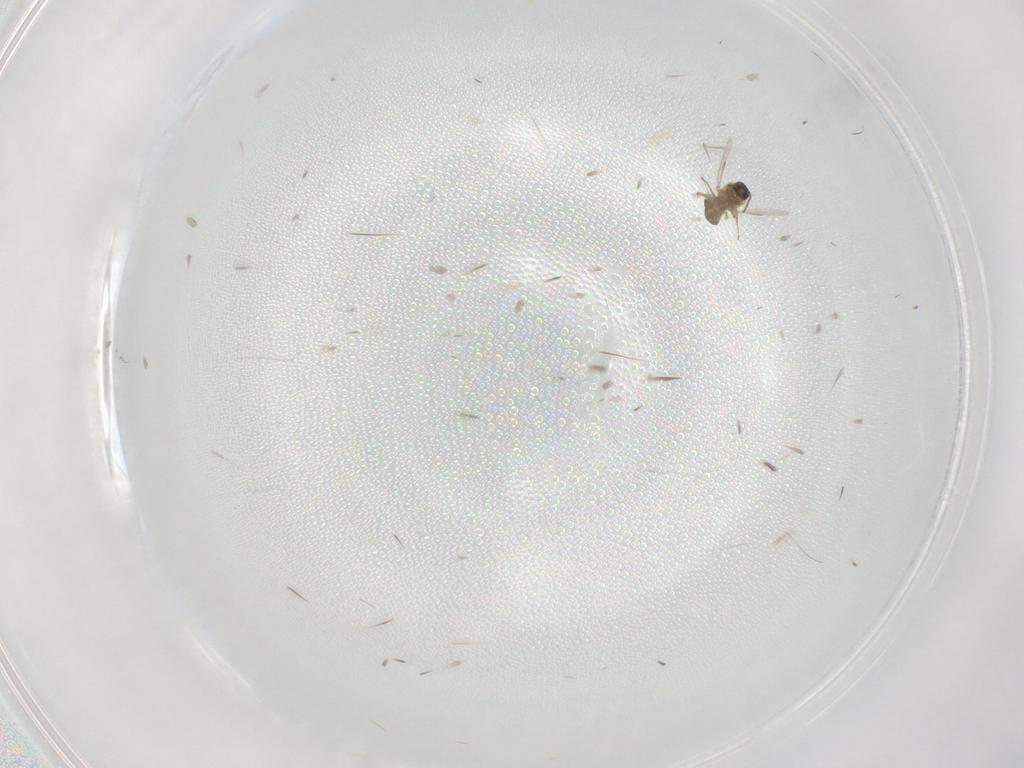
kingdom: Animalia
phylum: Arthropoda
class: Insecta
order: Diptera
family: Ceratopogonidae
